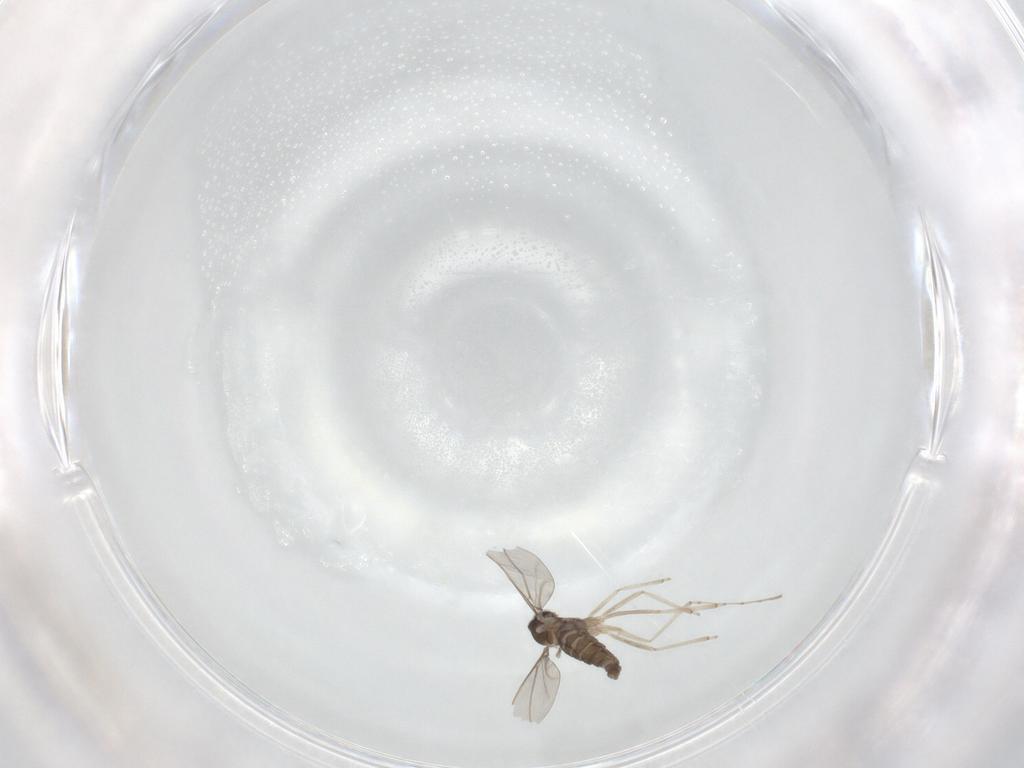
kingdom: Animalia
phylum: Arthropoda
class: Insecta
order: Diptera
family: Cecidomyiidae
